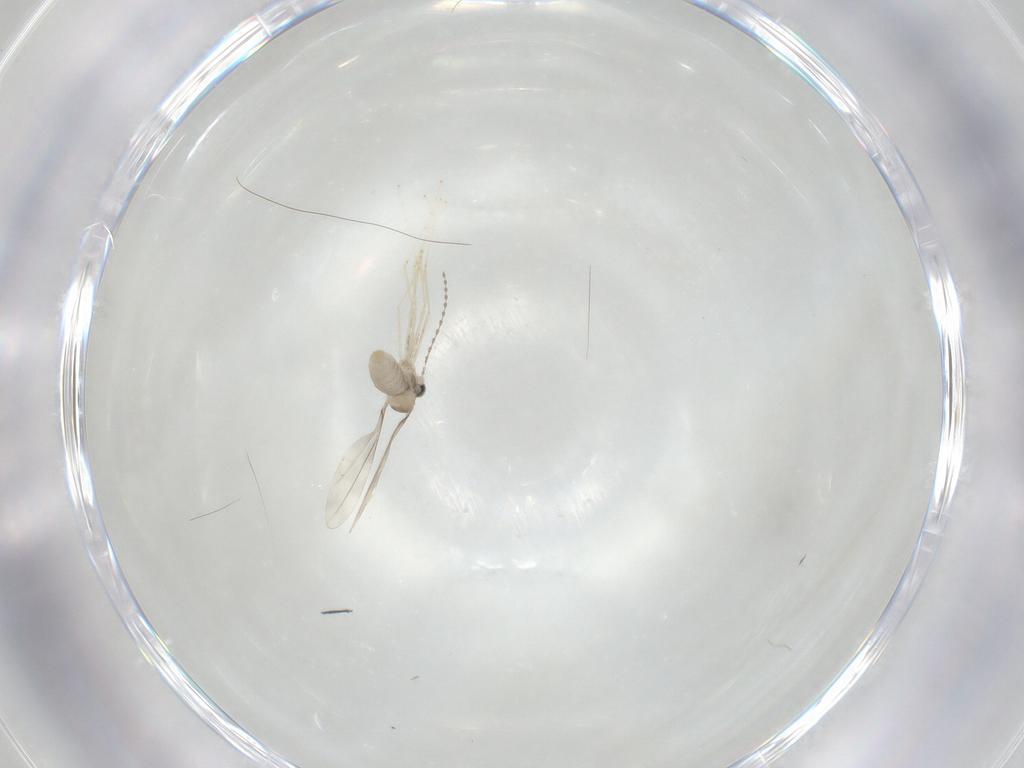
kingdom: Animalia
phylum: Arthropoda
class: Insecta
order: Diptera
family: Cecidomyiidae
